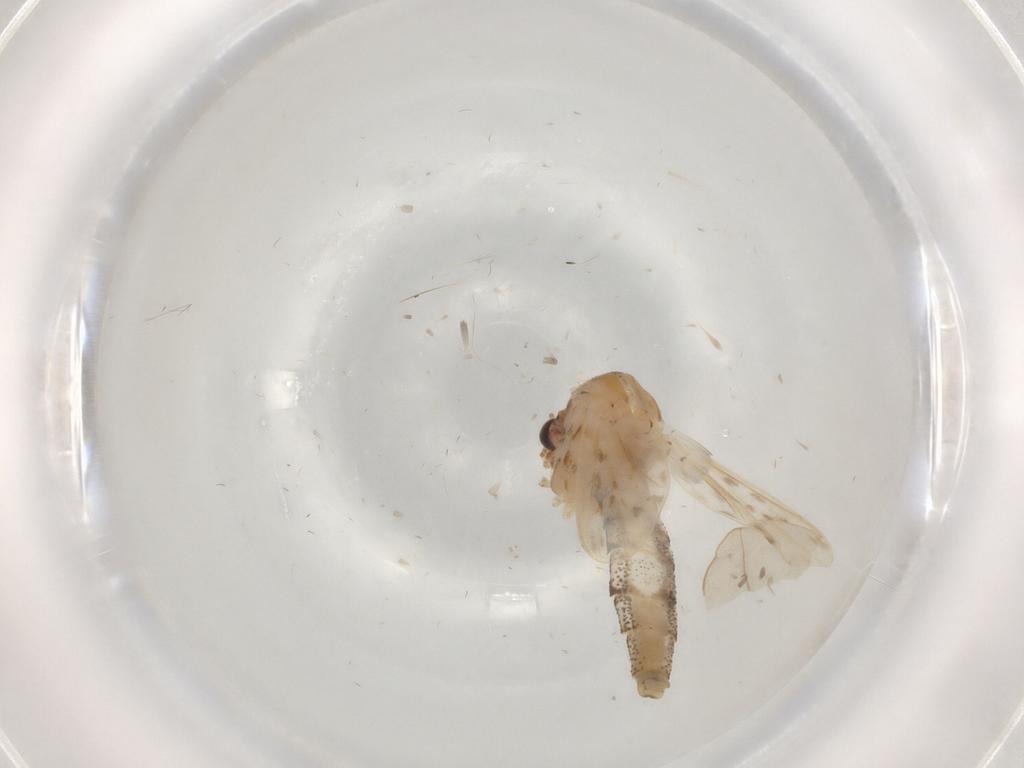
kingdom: Animalia
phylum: Arthropoda
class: Insecta
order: Diptera
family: Chaoboridae
